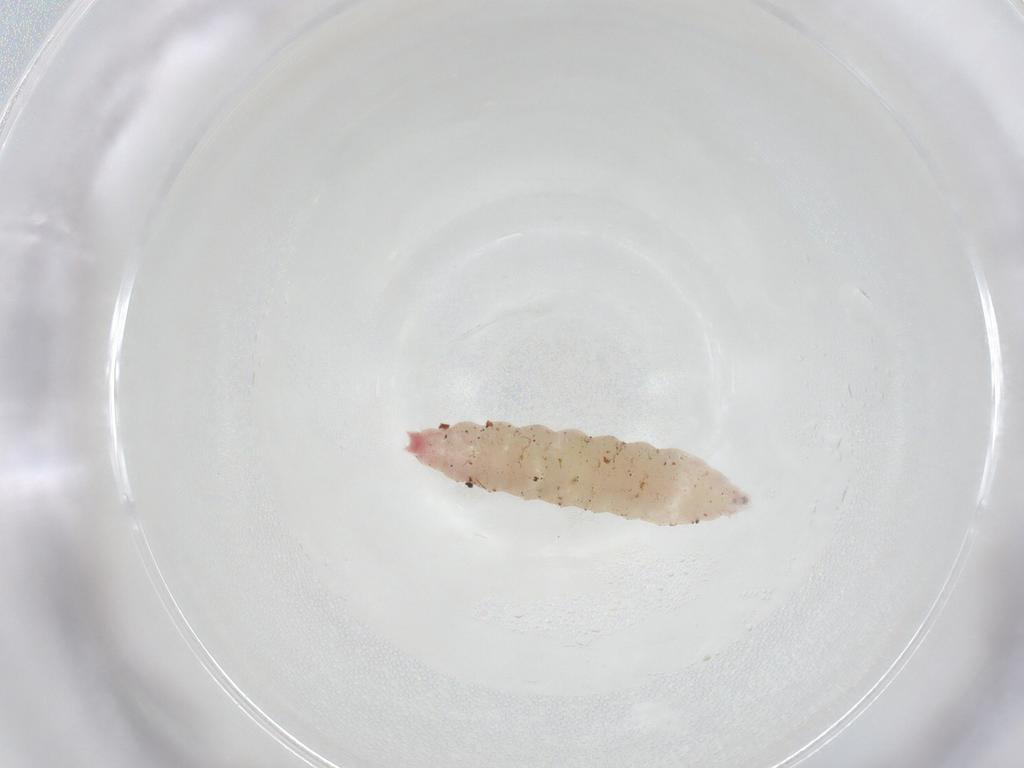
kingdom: Animalia
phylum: Arthropoda
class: Insecta
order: Diptera
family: Cecidomyiidae
